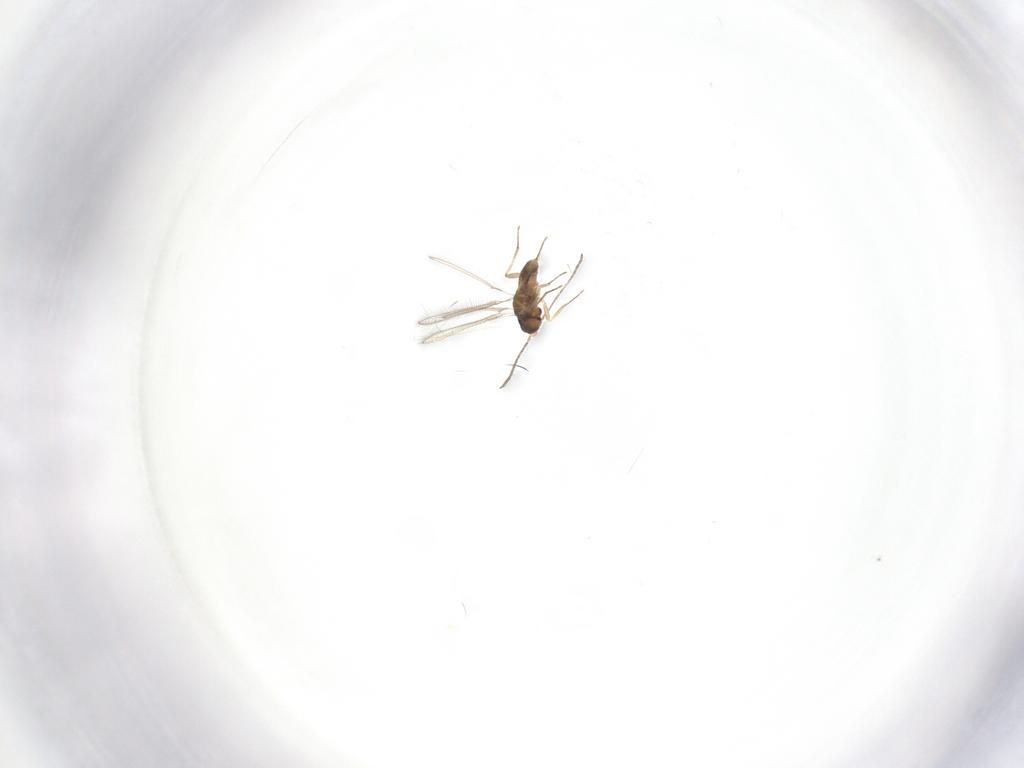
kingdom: Animalia
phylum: Arthropoda
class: Insecta
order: Hymenoptera
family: Mymaridae
